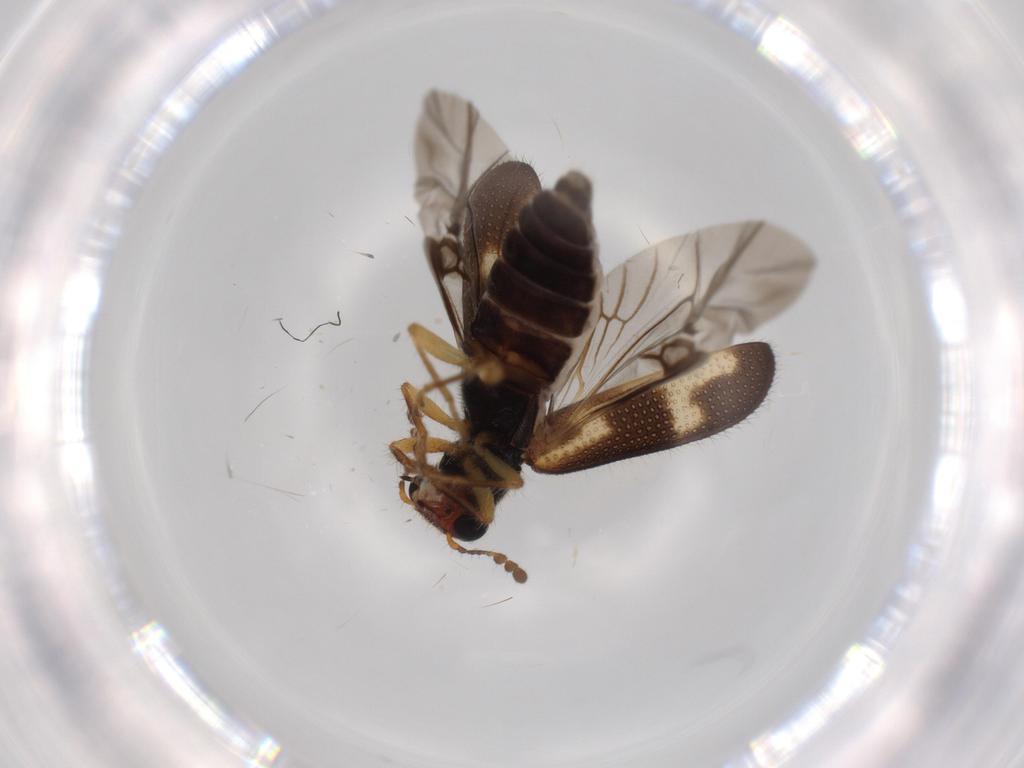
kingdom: Animalia
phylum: Arthropoda
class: Insecta
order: Coleoptera
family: Cleridae
